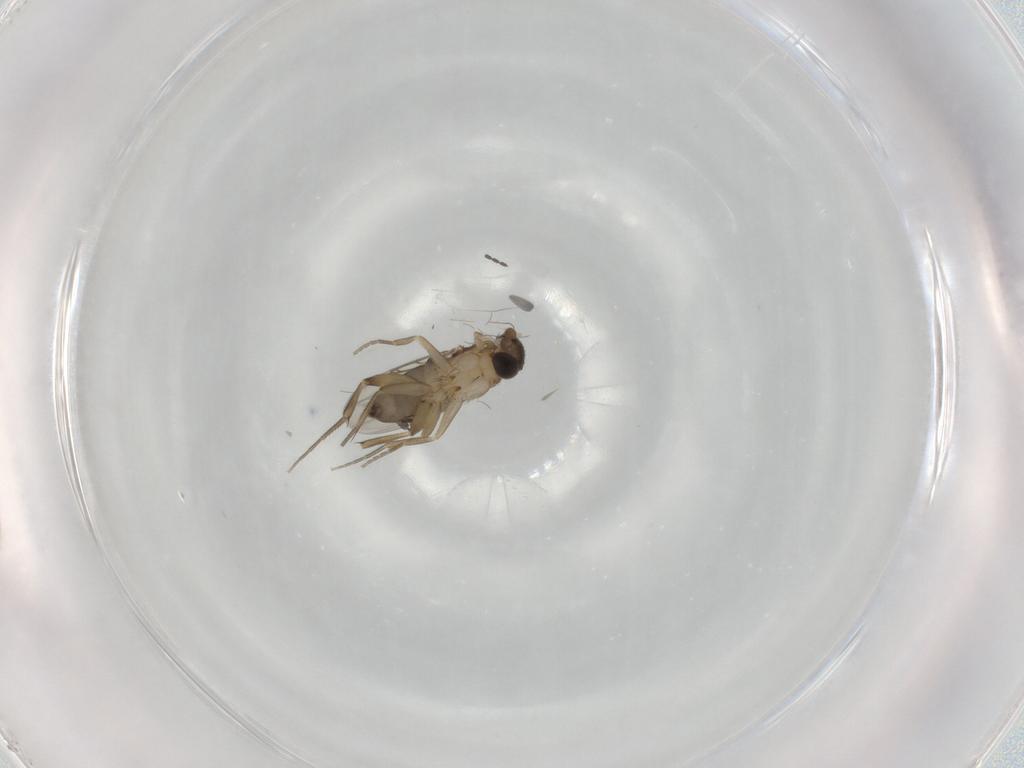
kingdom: Animalia
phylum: Arthropoda
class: Insecta
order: Diptera
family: Phoridae
